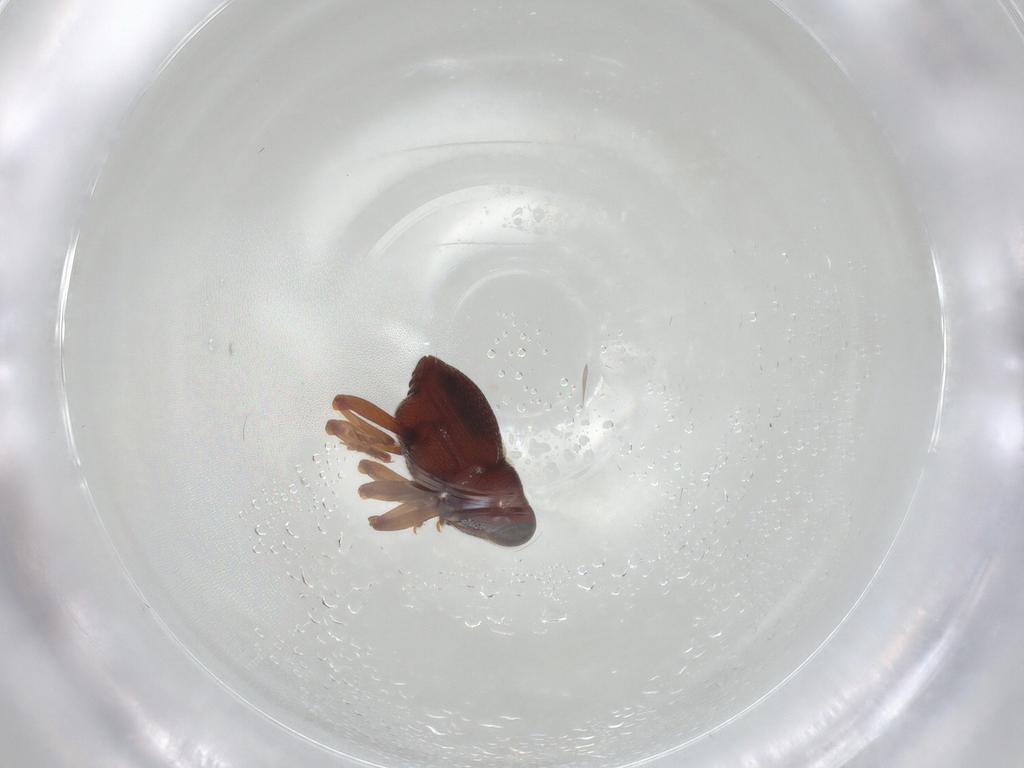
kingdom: Animalia
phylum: Arthropoda
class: Insecta
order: Coleoptera
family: Curculionidae
